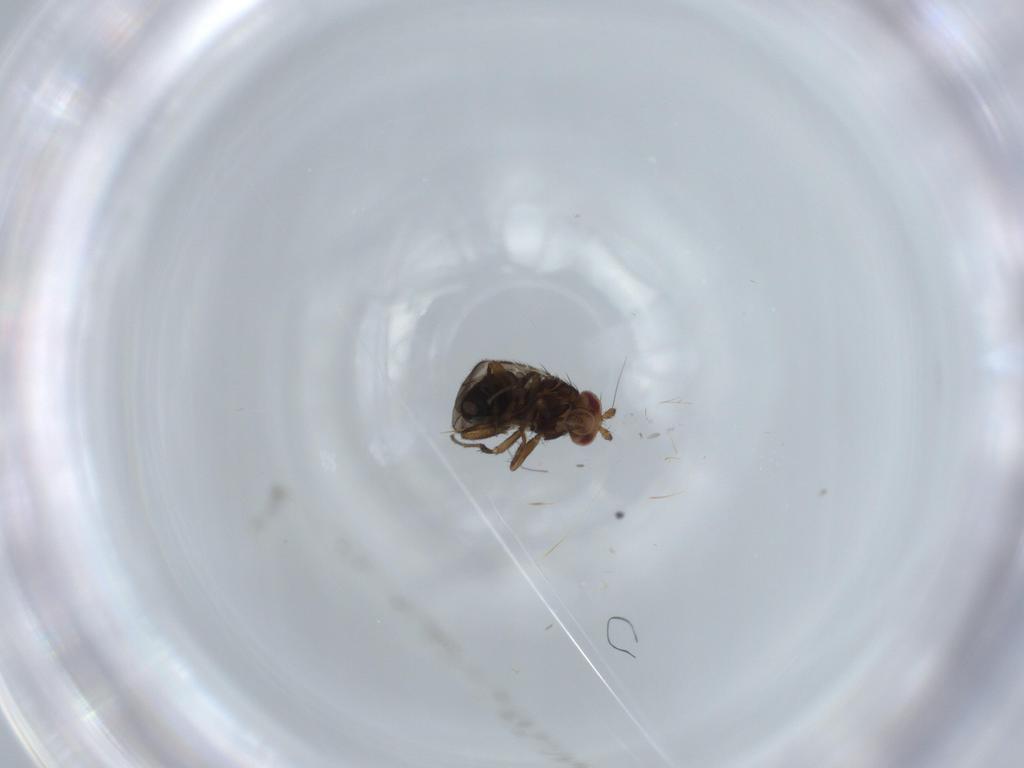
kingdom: Animalia
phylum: Arthropoda
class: Insecta
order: Diptera
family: Sphaeroceridae
